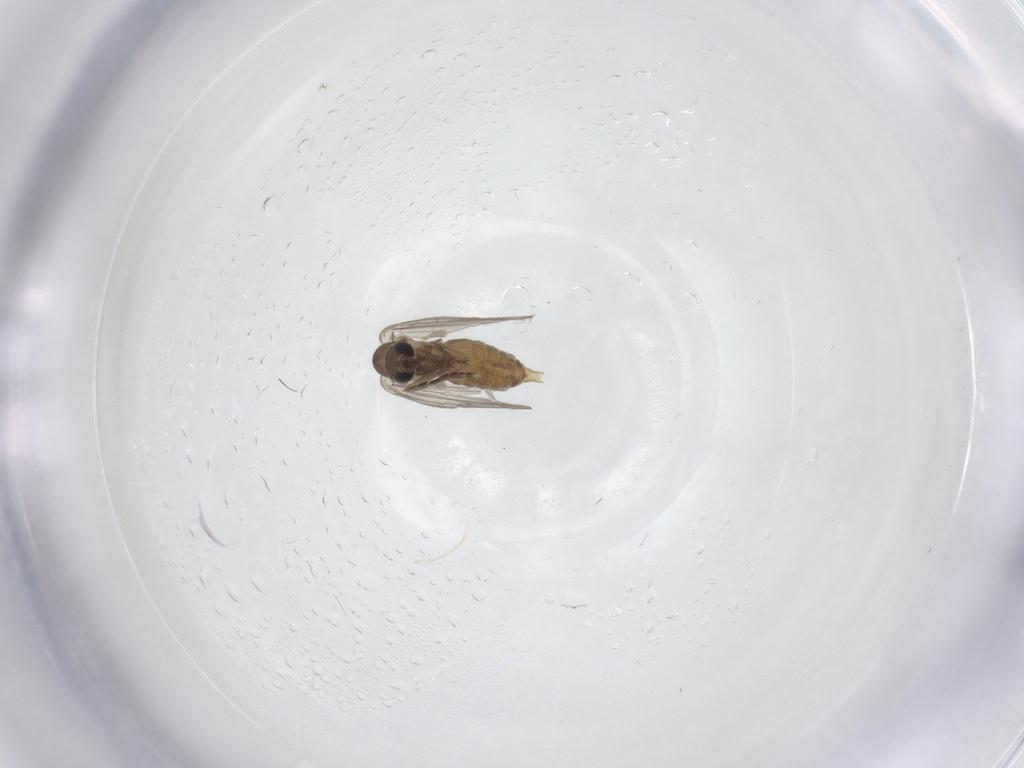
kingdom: Animalia
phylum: Arthropoda
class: Insecta
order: Diptera
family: Psychodidae
